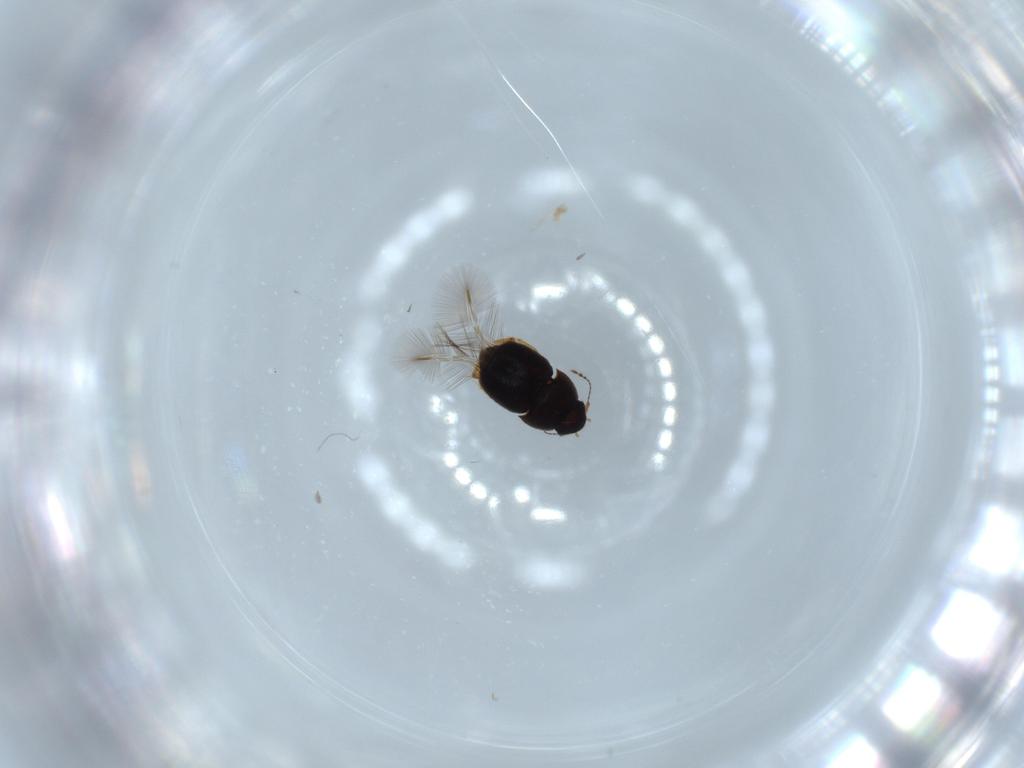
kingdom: Animalia
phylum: Arthropoda
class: Insecta
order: Coleoptera
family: Ptiliidae
